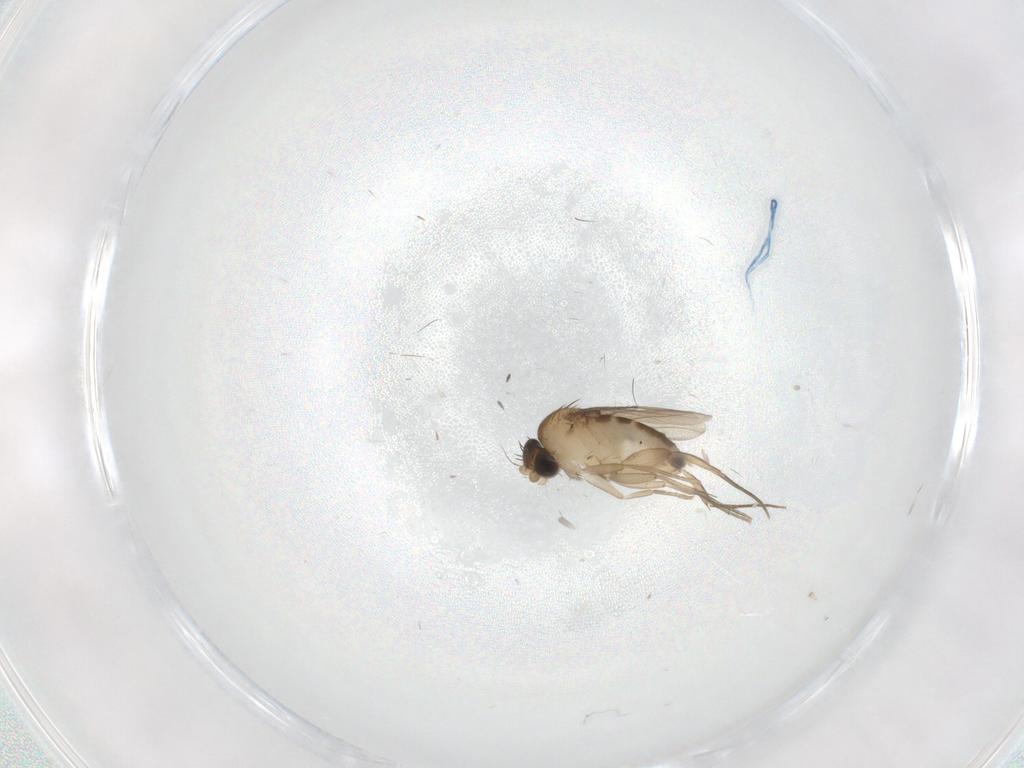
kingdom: Animalia
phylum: Arthropoda
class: Insecta
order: Diptera
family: Phoridae
